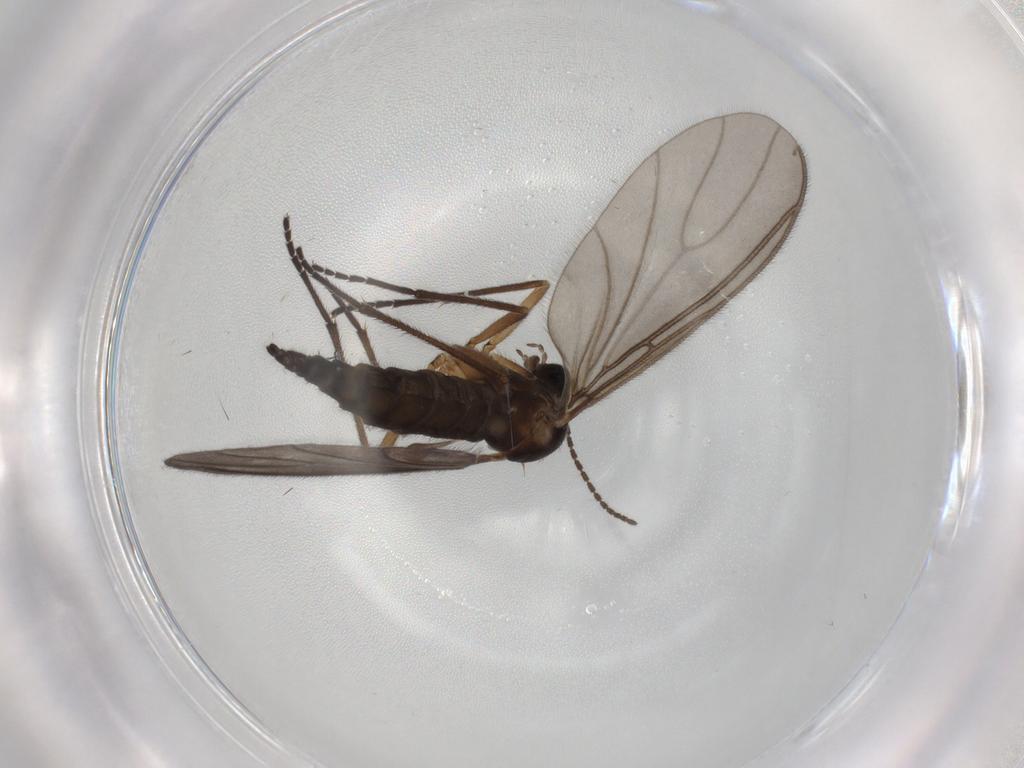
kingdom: Animalia
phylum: Arthropoda
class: Insecta
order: Diptera
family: Sciaridae
